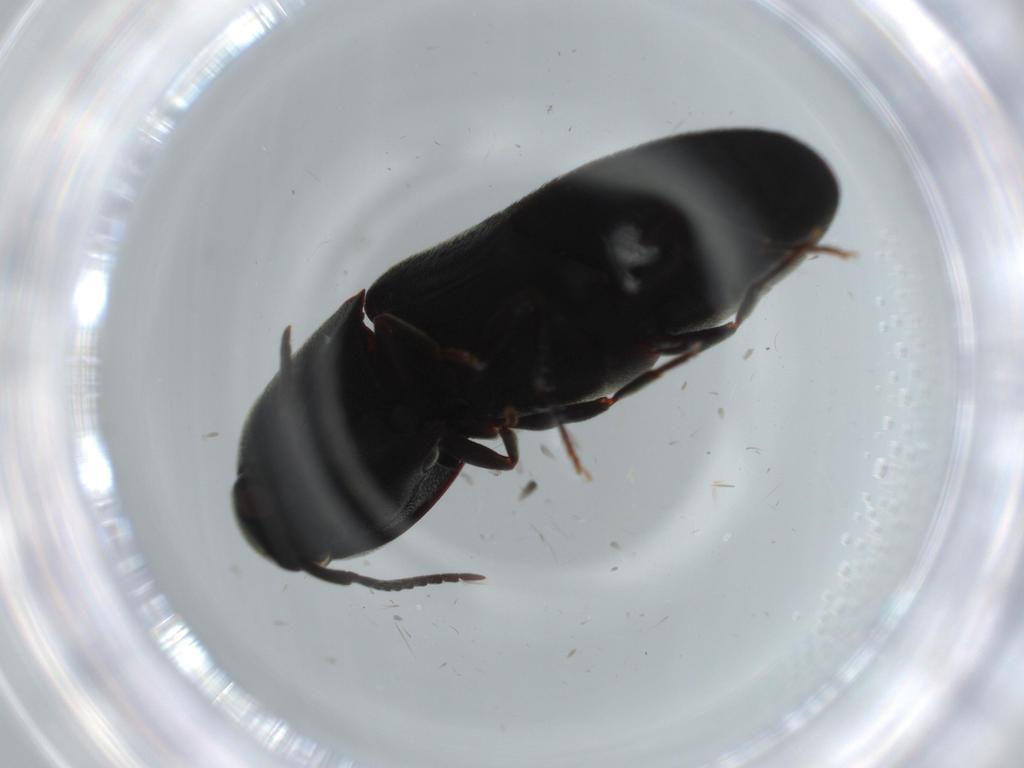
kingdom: Animalia
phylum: Arthropoda
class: Insecta
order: Coleoptera
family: Eucnemidae
